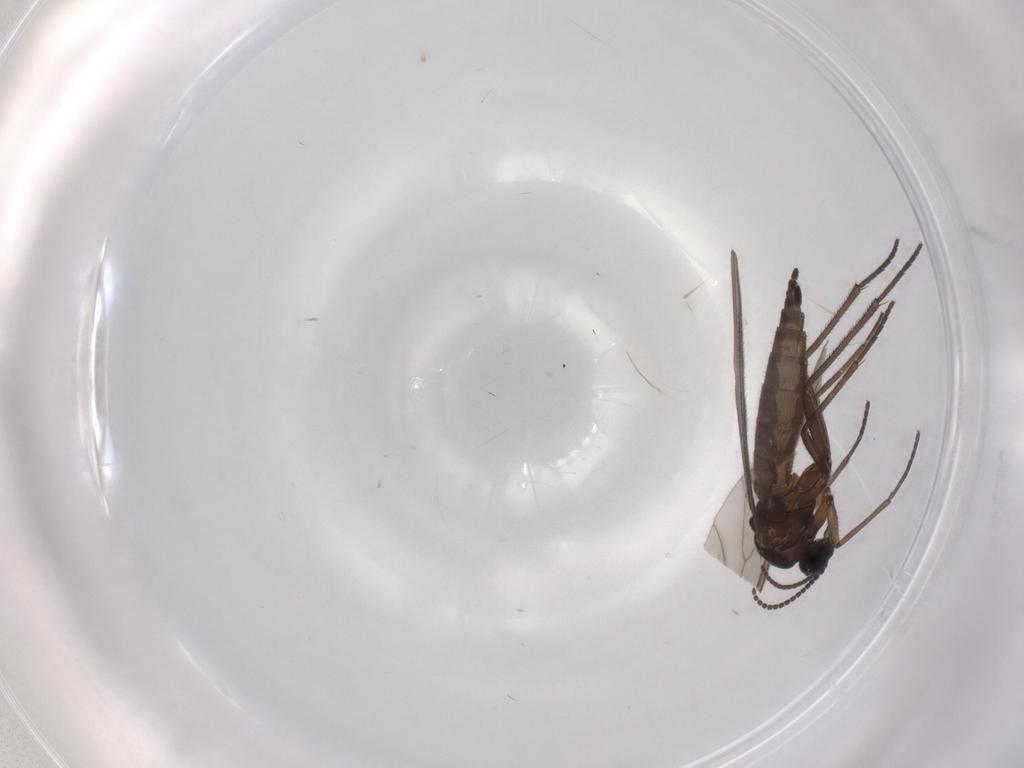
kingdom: Animalia
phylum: Arthropoda
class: Insecta
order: Diptera
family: Sciaridae
